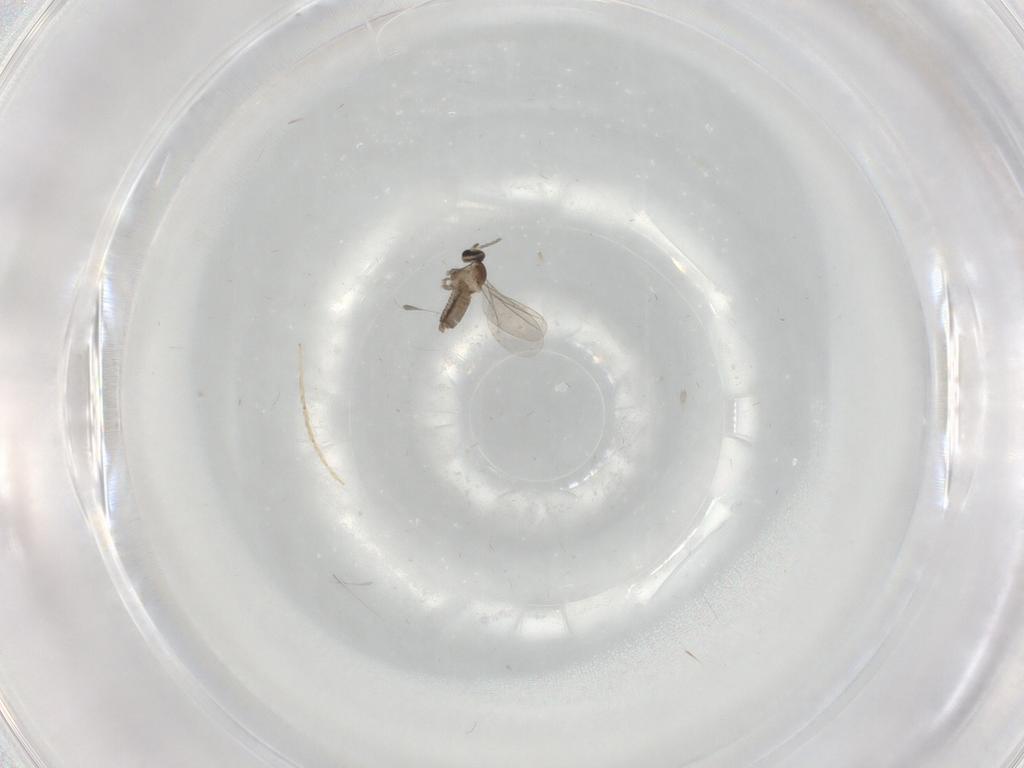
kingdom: Animalia
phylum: Arthropoda
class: Insecta
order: Diptera
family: Cecidomyiidae
